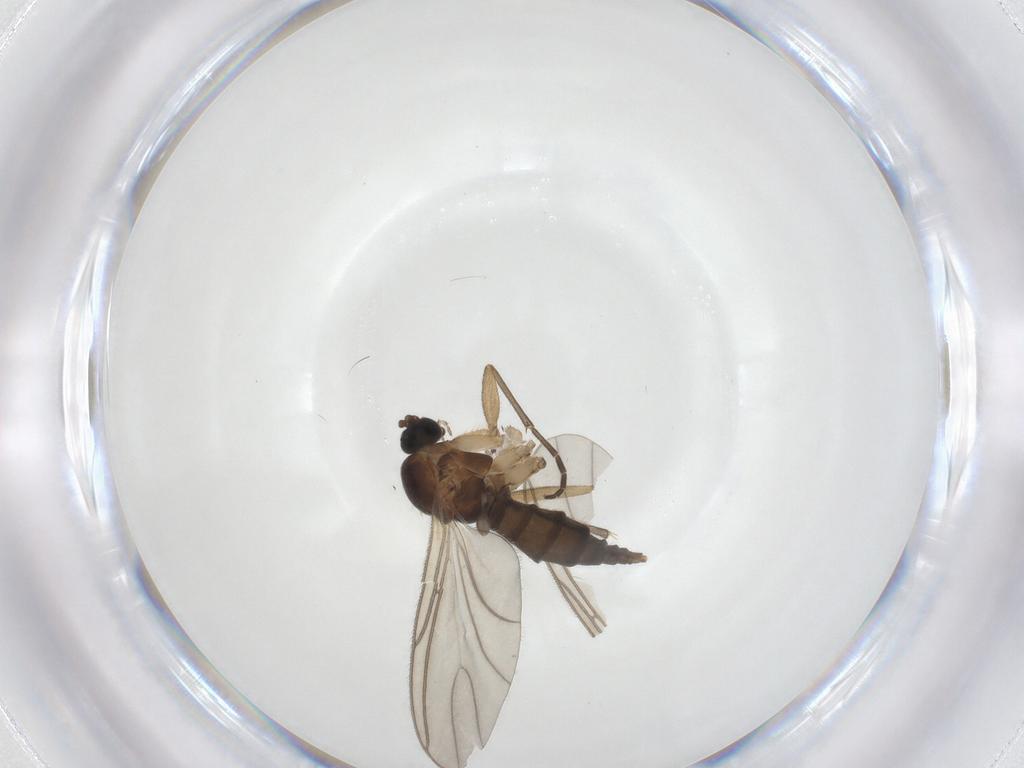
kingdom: Animalia
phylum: Arthropoda
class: Insecta
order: Diptera
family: Sciaridae
